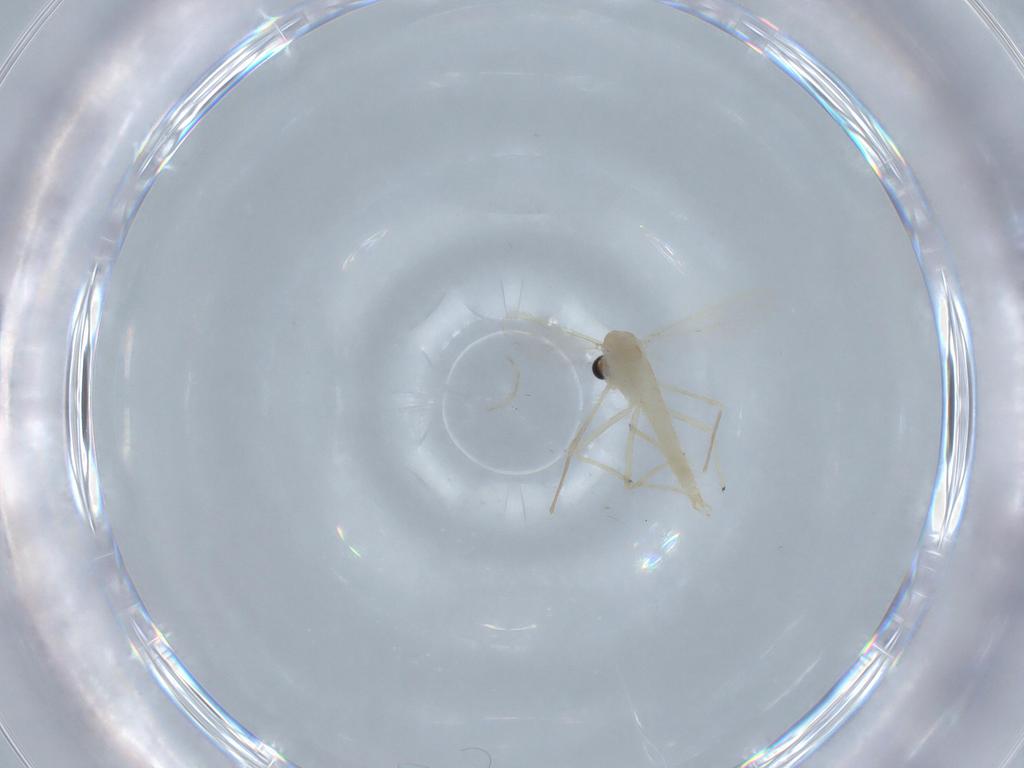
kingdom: Animalia
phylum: Arthropoda
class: Insecta
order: Diptera
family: Chironomidae
